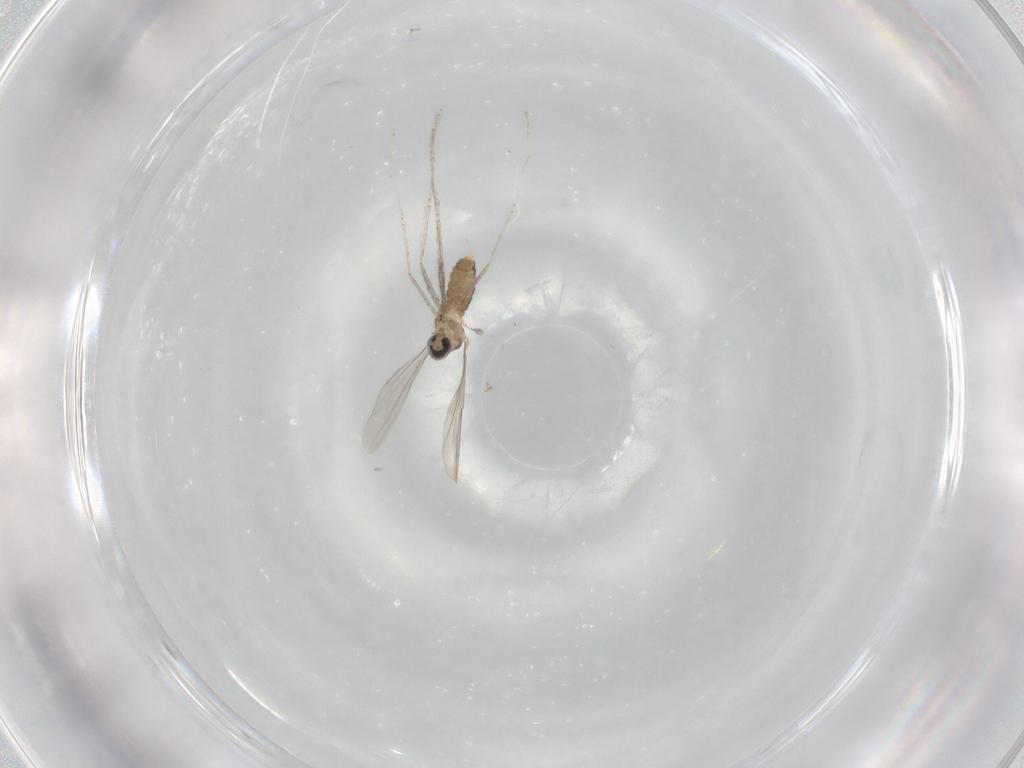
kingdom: Animalia
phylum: Arthropoda
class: Insecta
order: Diptera
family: Cecidomyiidae
